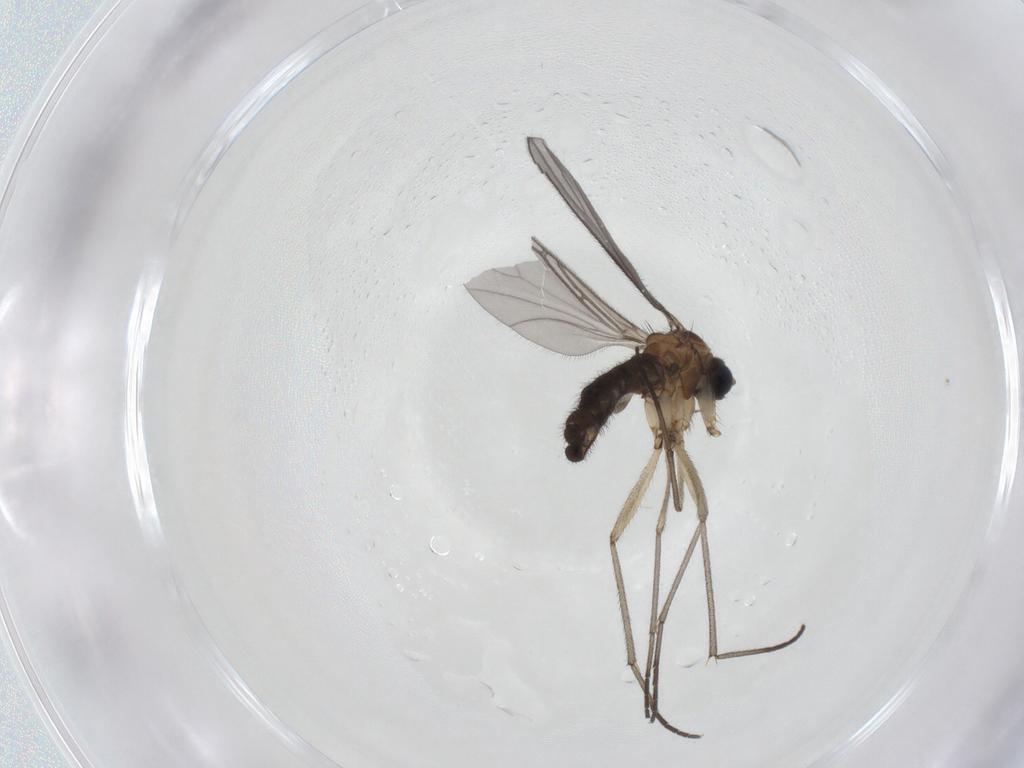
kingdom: Animalia
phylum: Arthropoda
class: Insecta
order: Diptera
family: Sciaridae
